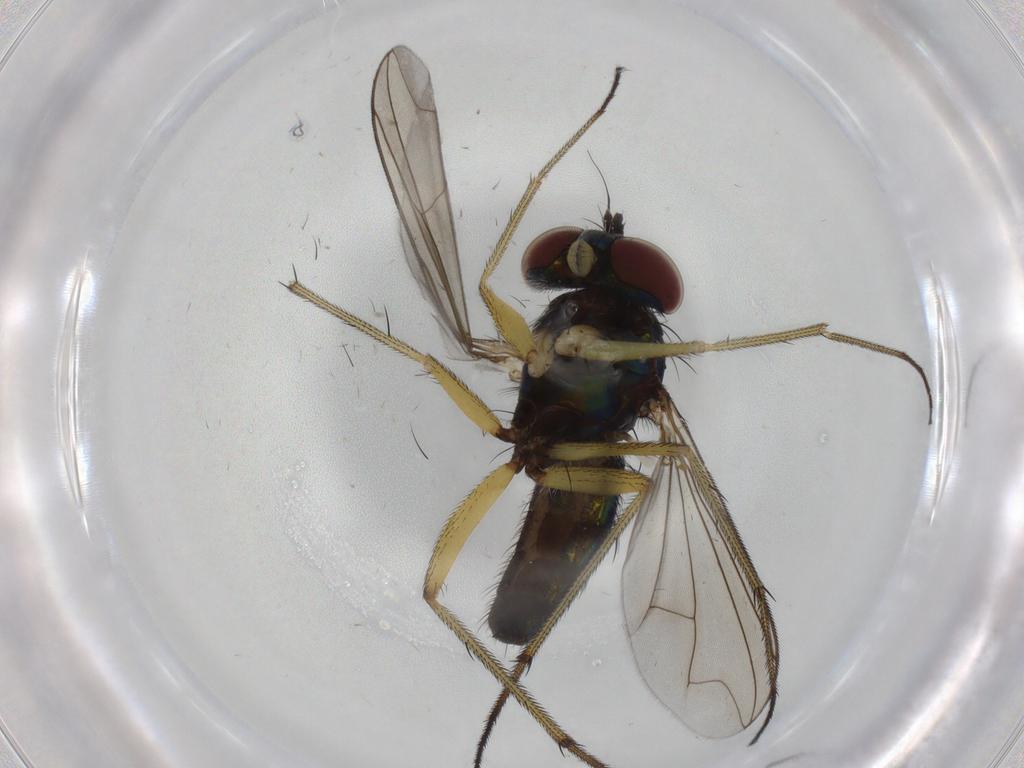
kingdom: Animalia
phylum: Arthropoda
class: Insecta
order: Diptera
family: Dolichopodidae
